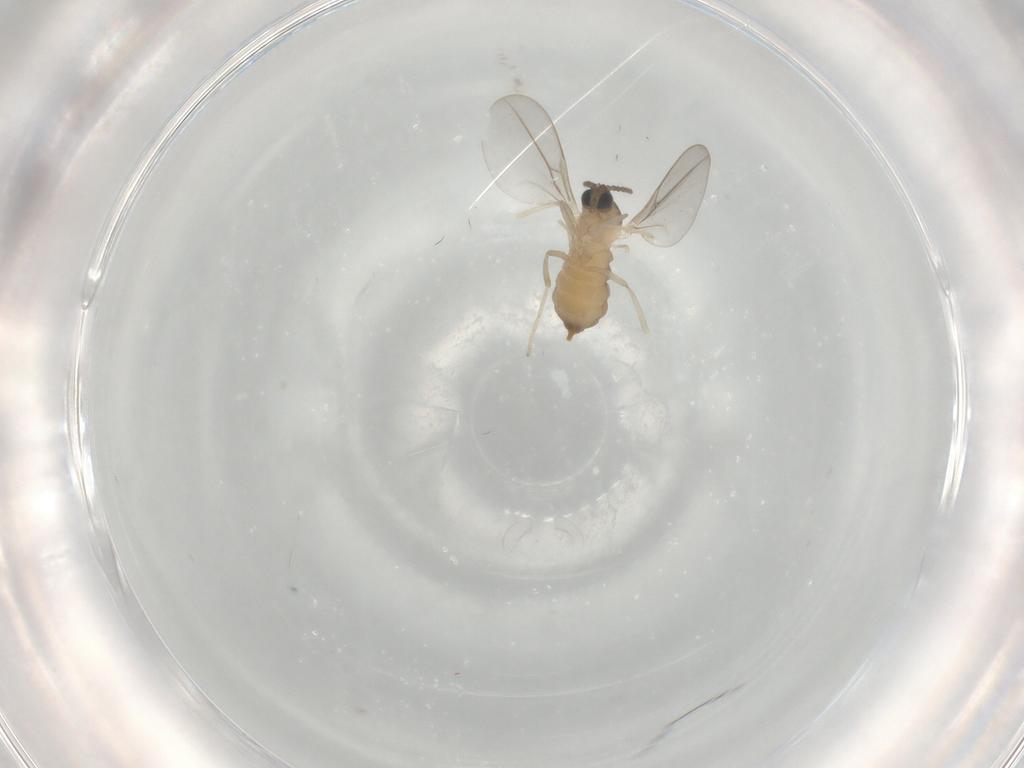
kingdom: Animalia
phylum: Arthropoda
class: Insecta
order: Diptera
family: Cecidomyiidae
